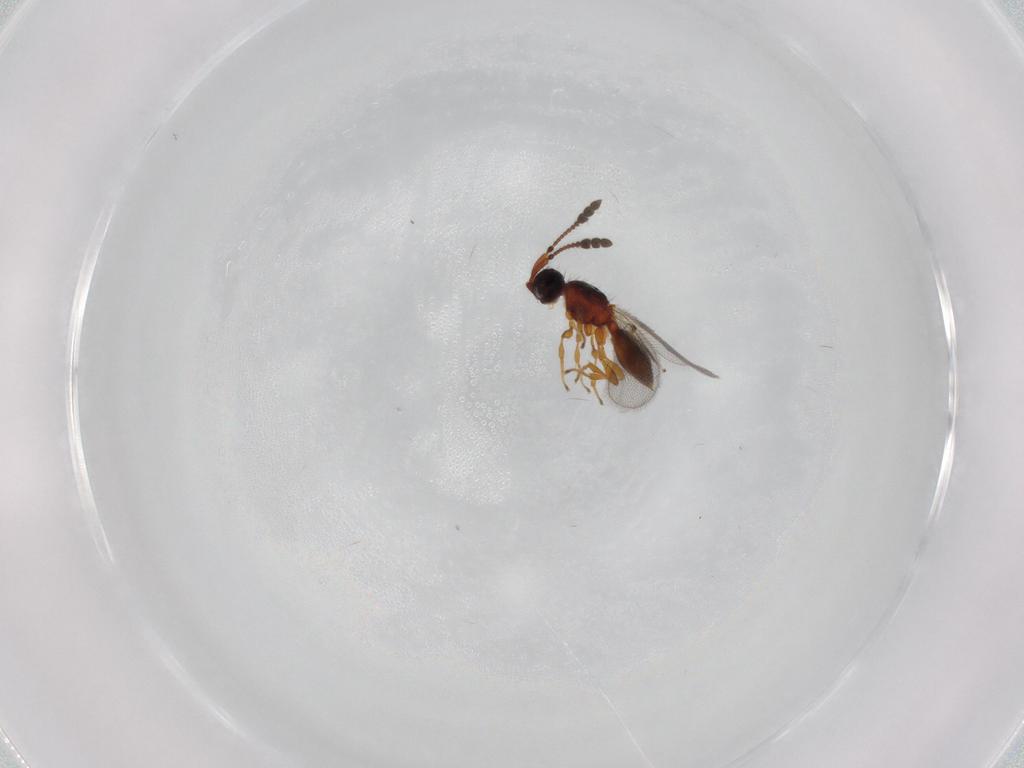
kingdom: Animalia
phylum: Arthropoda
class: Insecta
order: Hymenoptera
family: Diapriidae
